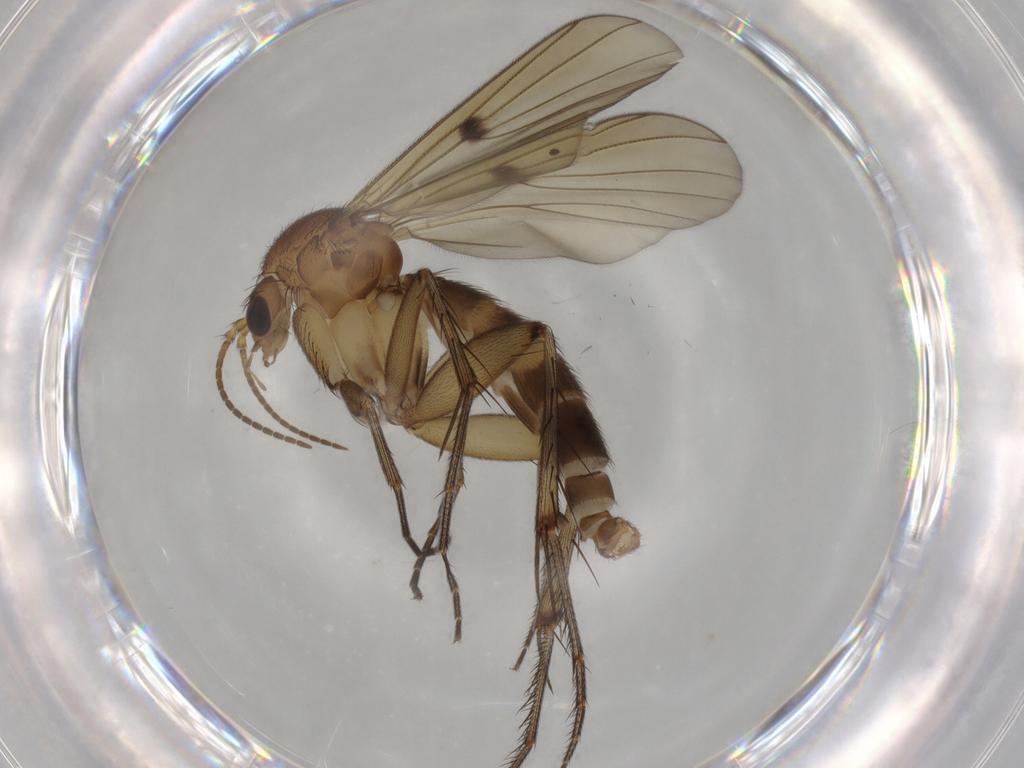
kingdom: Animalia
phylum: Arthropoda
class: Insecta
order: Diptera
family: Mycetophilidae
